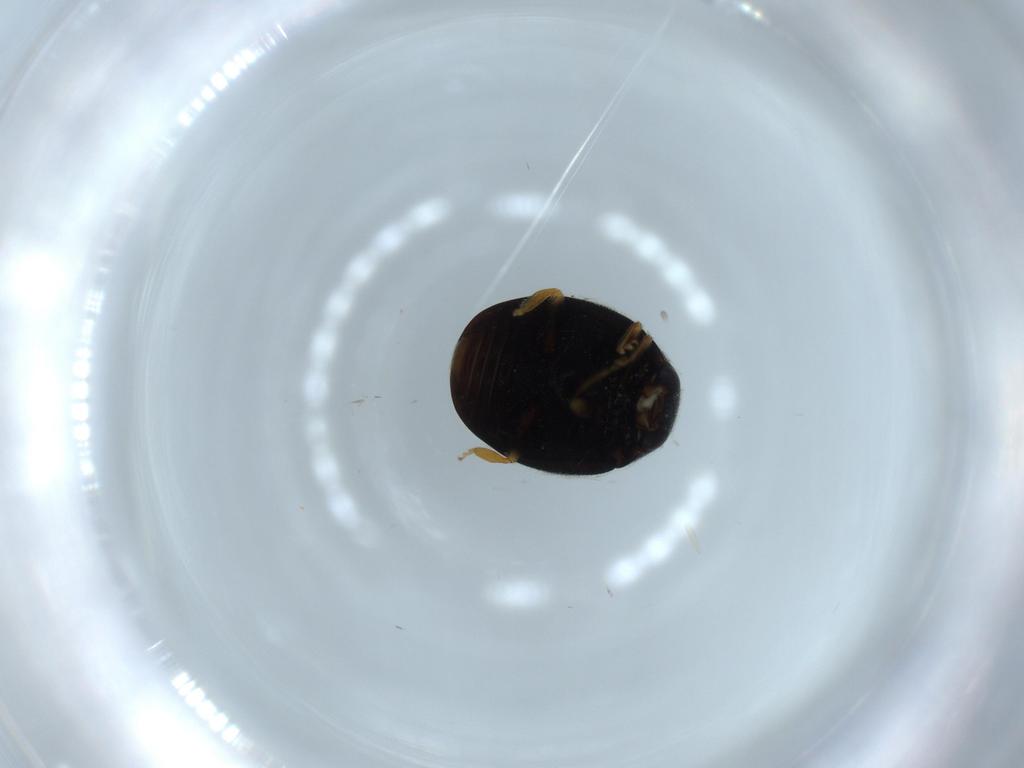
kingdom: Animalia
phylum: Arthropoda
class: Insecta
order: Coleoptera
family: Coccinellidae
